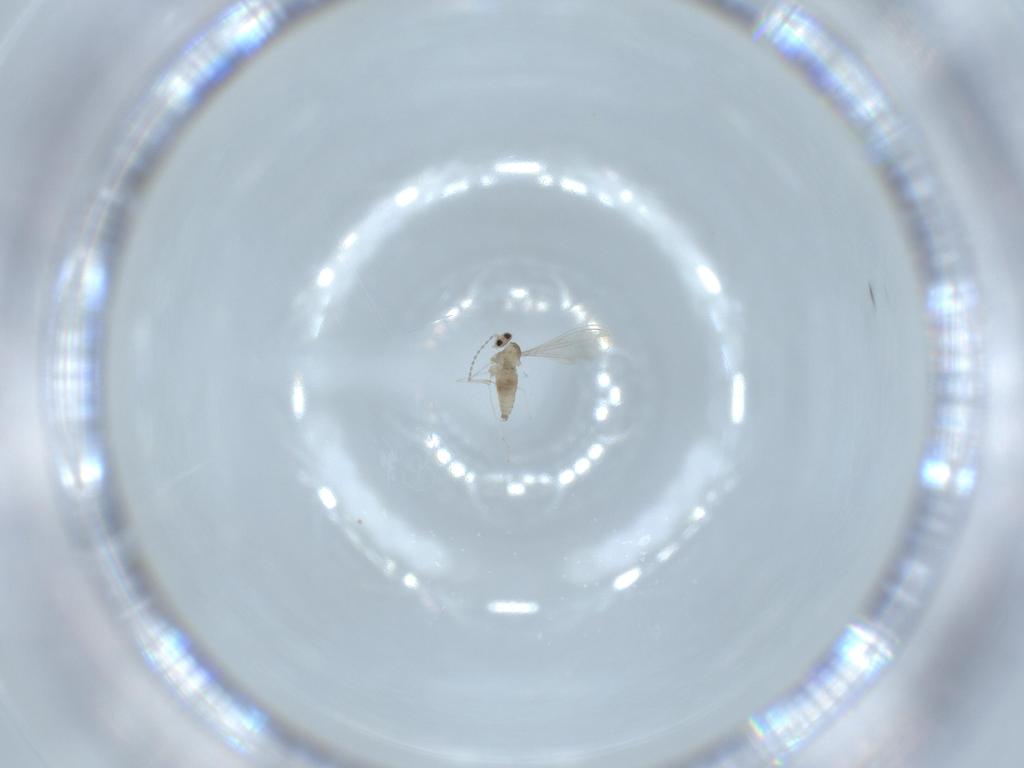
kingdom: Animalia
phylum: Arthropoda
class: Insecta
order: Diptera
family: Cecidomyiidae
